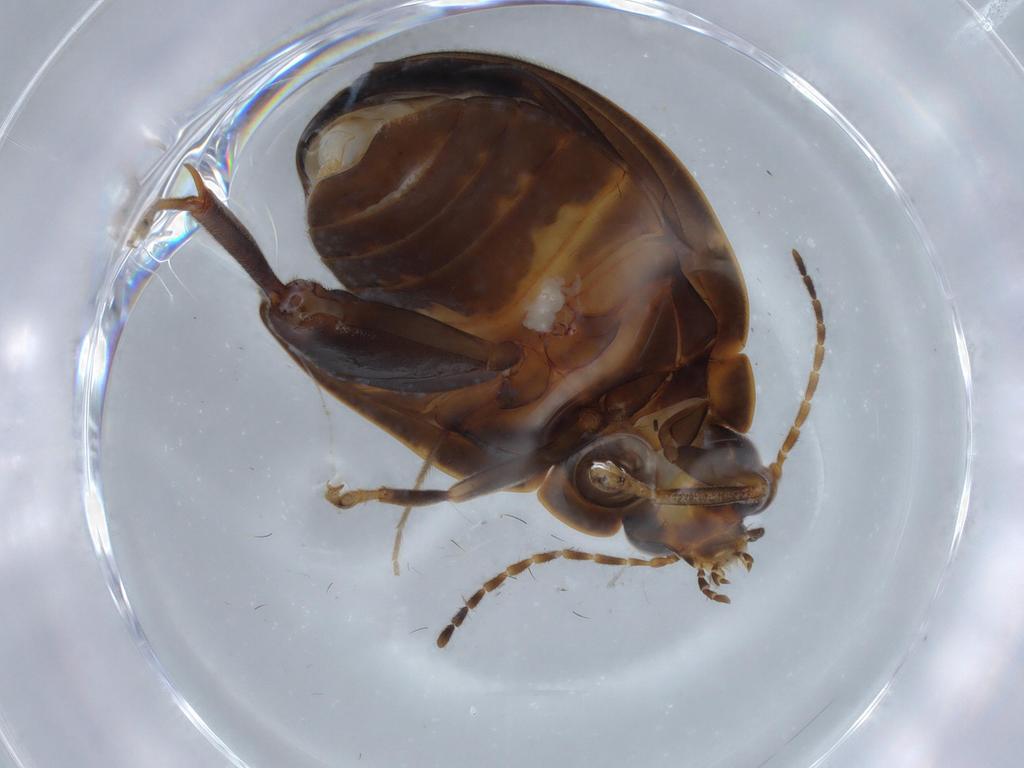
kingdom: Animalia
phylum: Arthropoda
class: Insecta
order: Coleoptera
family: Scirtidae
